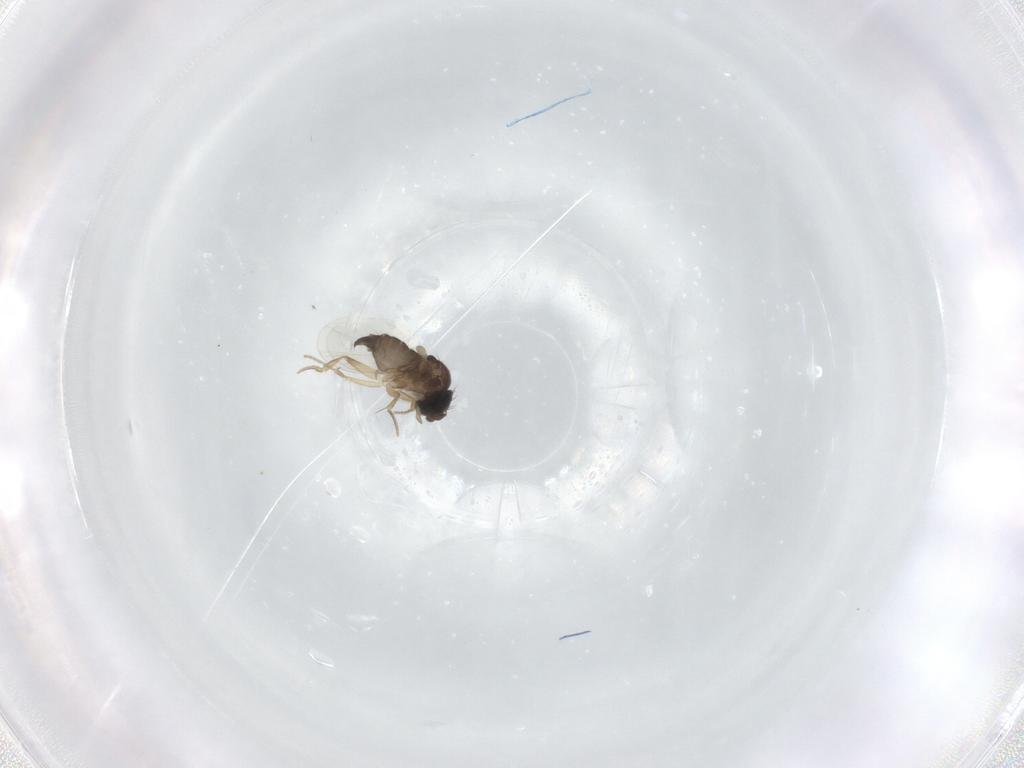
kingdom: Animalia
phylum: Arthropoda
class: Insecta
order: Diptera
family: Phoridae
